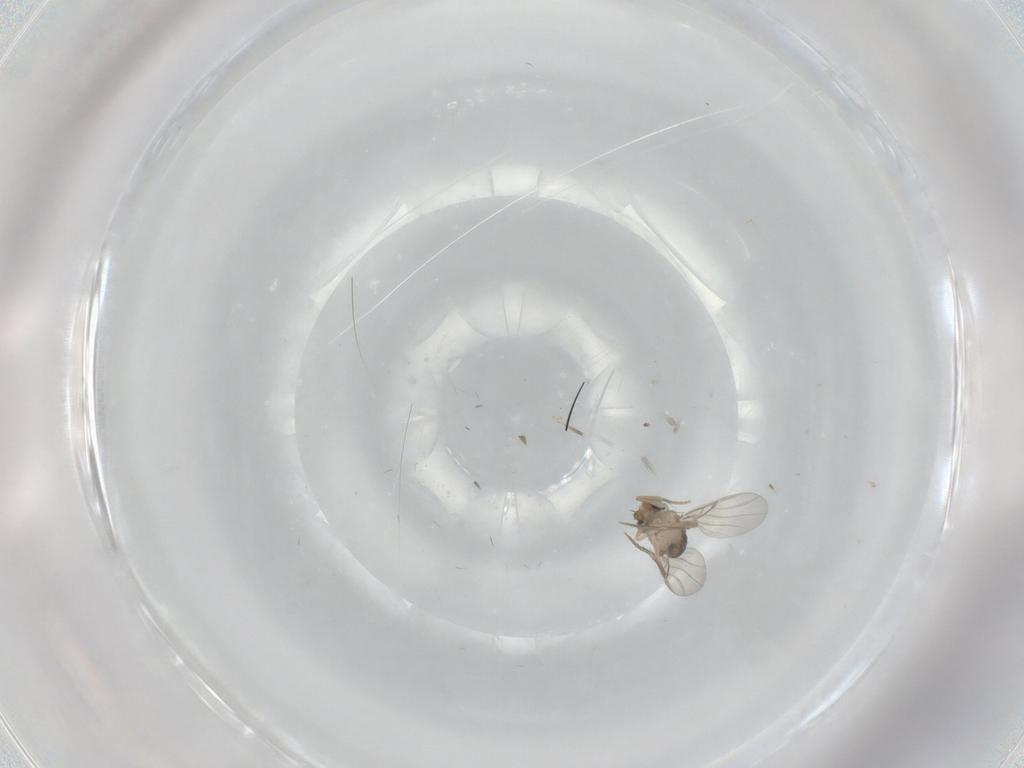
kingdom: Animalia
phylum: Arthropoda
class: Insecta
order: Diptera
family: Phoridae
